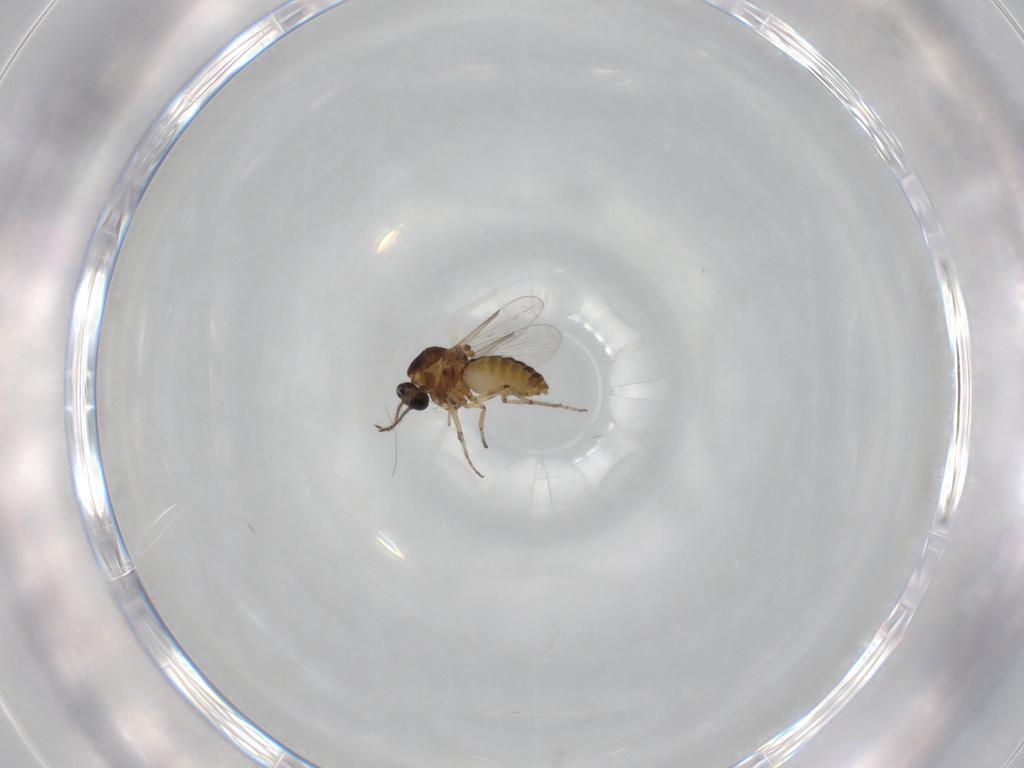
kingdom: Animalia
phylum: Arthropoda
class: Insecta
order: Diptera
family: Ceratopogonidae
